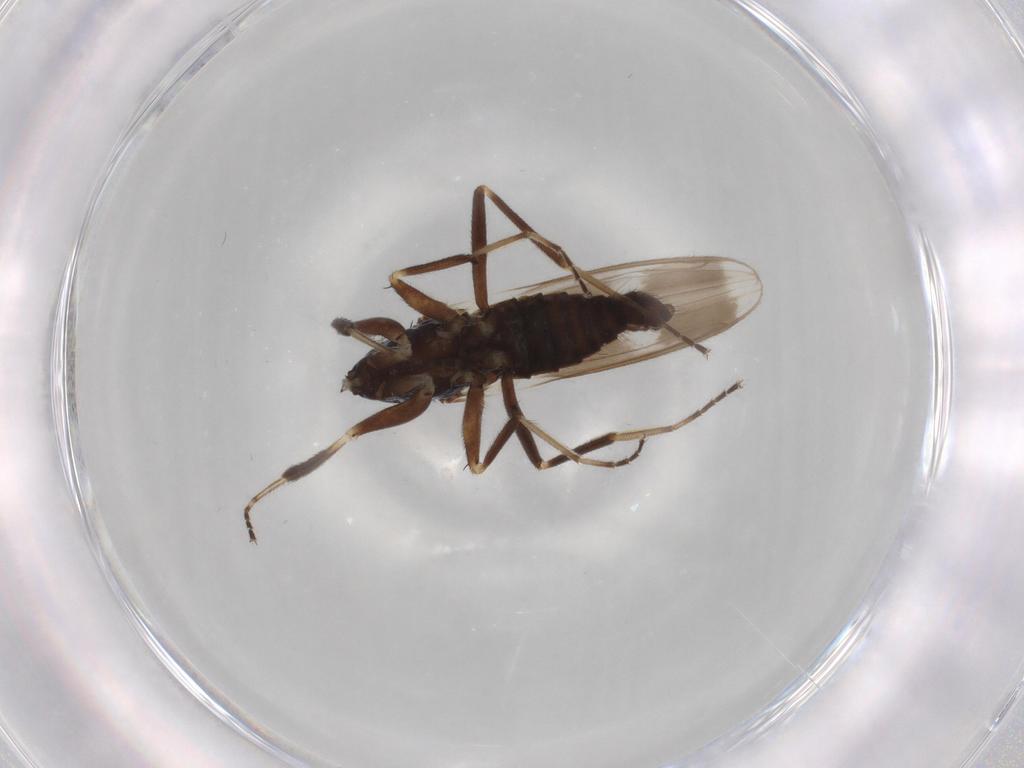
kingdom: Animalia
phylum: Arthropoda
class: Insecta
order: Diptera
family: Hybotidae
